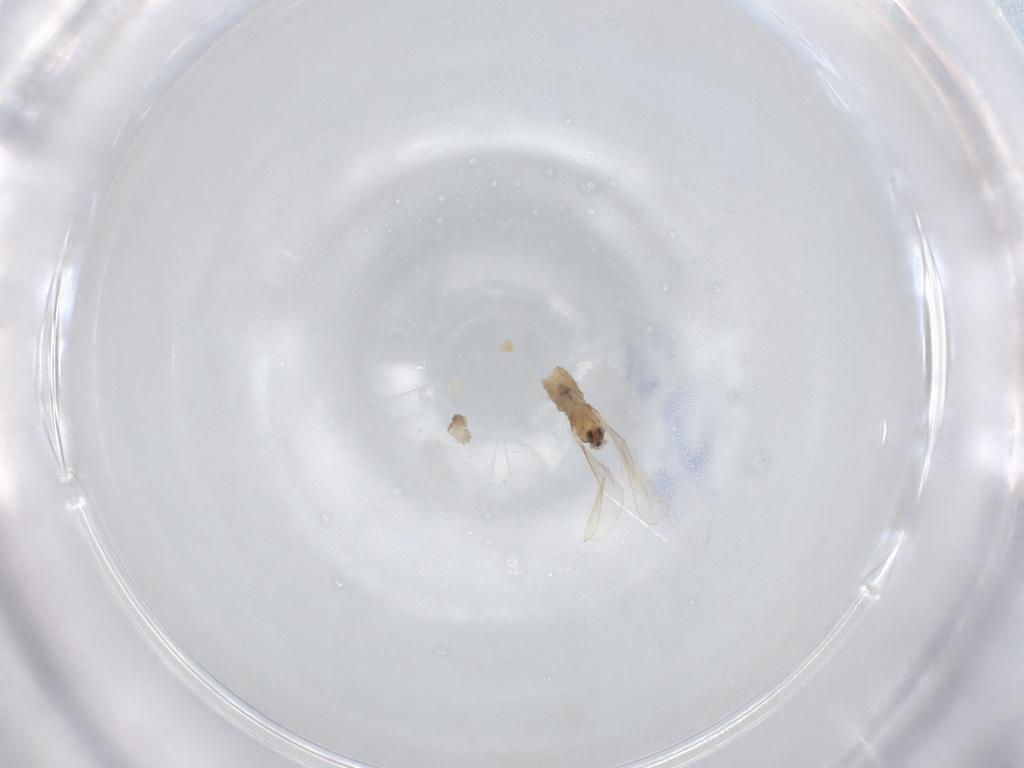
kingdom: Animalia
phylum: Arthropoda
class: Insecta
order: Diptera
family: Cecidomyiidae
